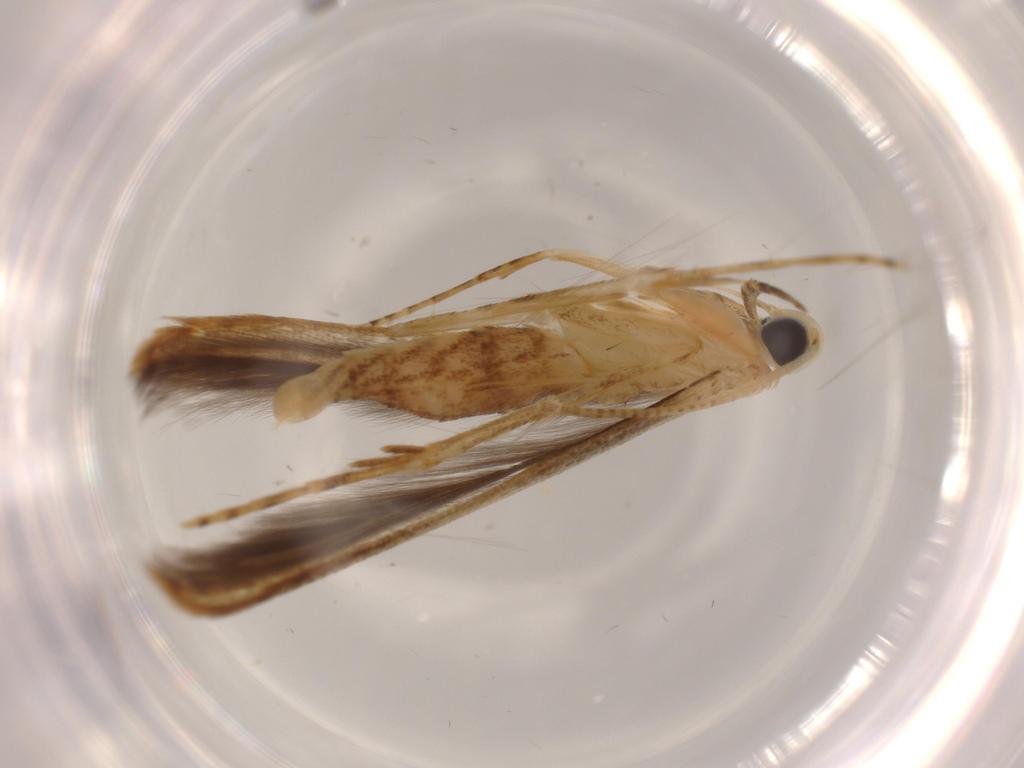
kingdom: Animalia
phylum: Arthropoda
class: Insecta
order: Lepidoptera
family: Batrachedridae
